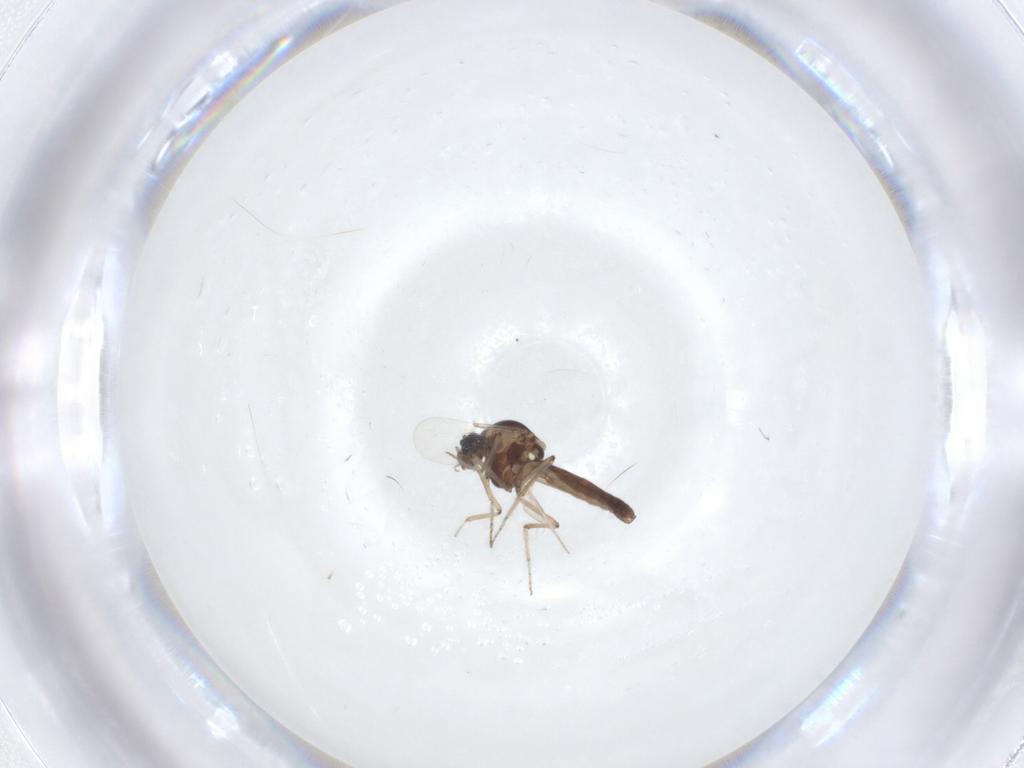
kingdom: Animalia
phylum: Arthropoda
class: Insecta
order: Diptera
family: Ceratopogonidae
